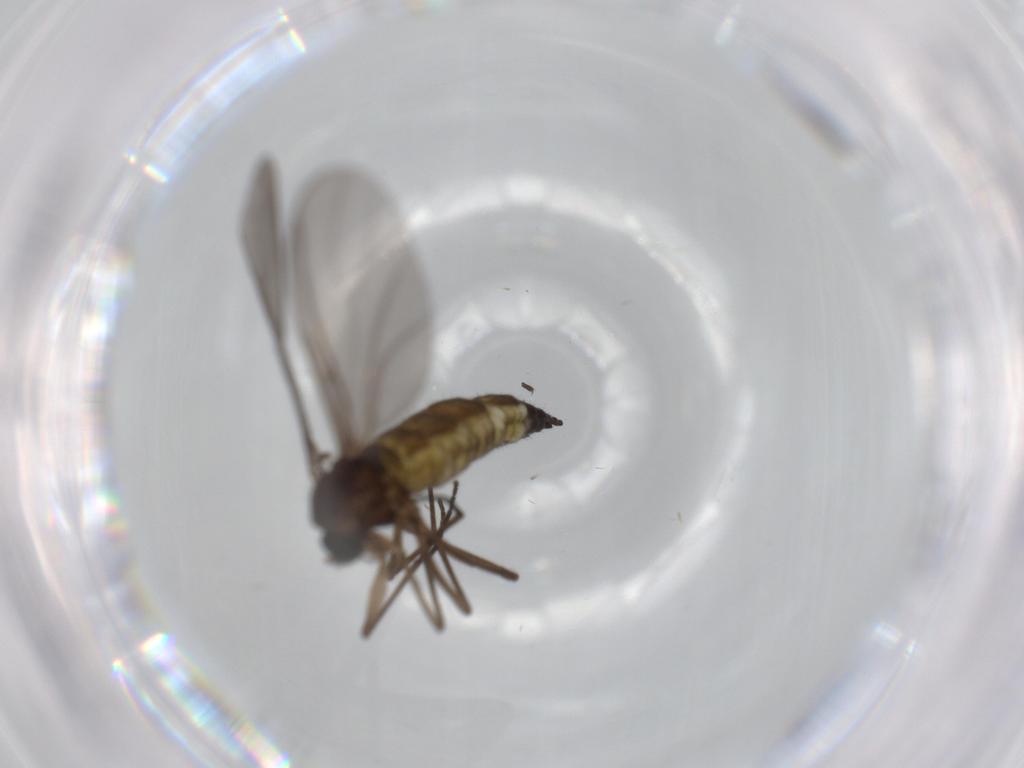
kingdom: Animalia
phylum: Arthropoda
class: Insecta
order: Diptera
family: Sciaridae
